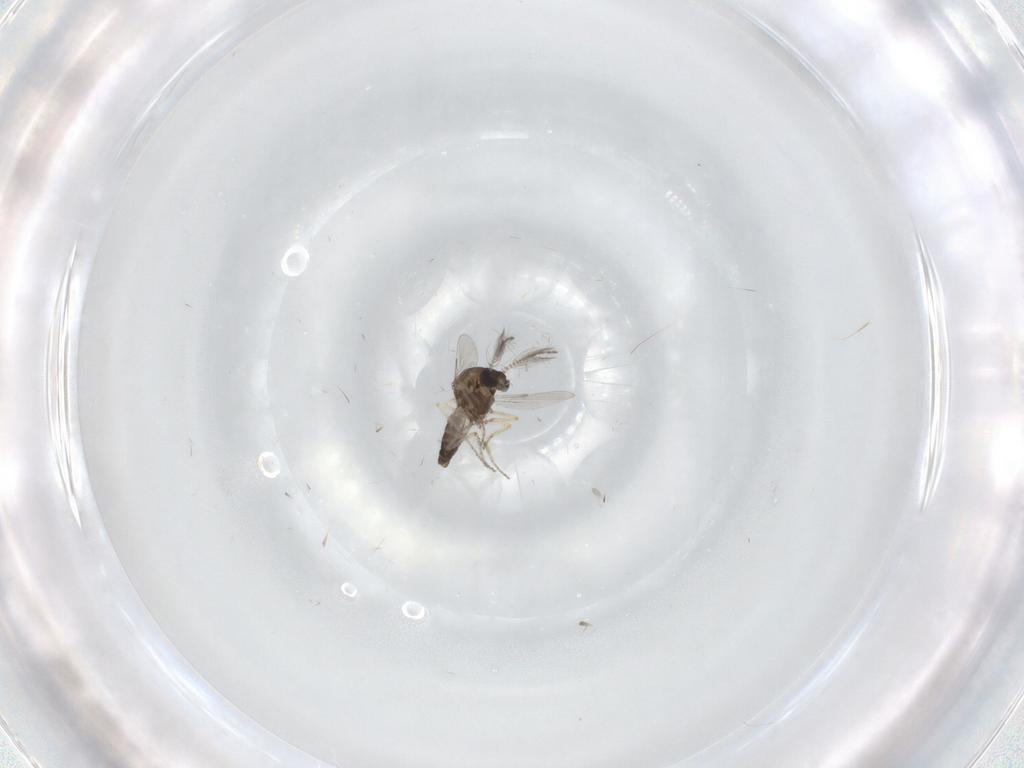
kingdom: Animalia
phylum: Arthropoda
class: Insecta
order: Diptera
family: Ceratopogonidae
